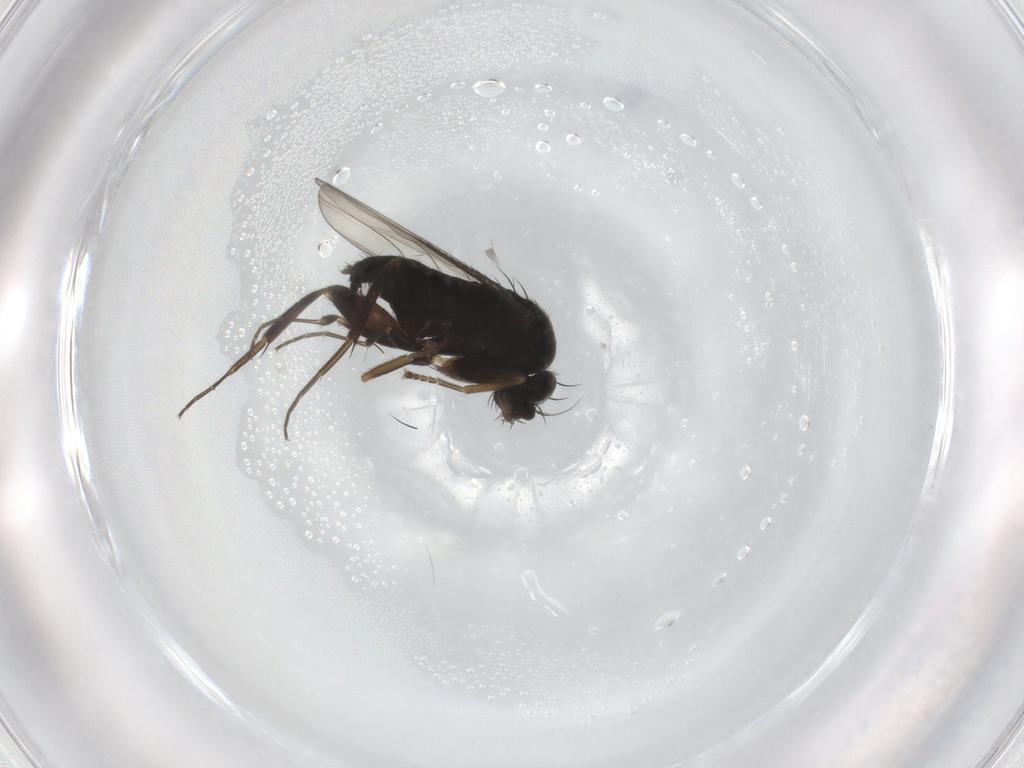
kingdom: Animalia
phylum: Arthropoda
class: Insecta
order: Diptera
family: Phoridae
